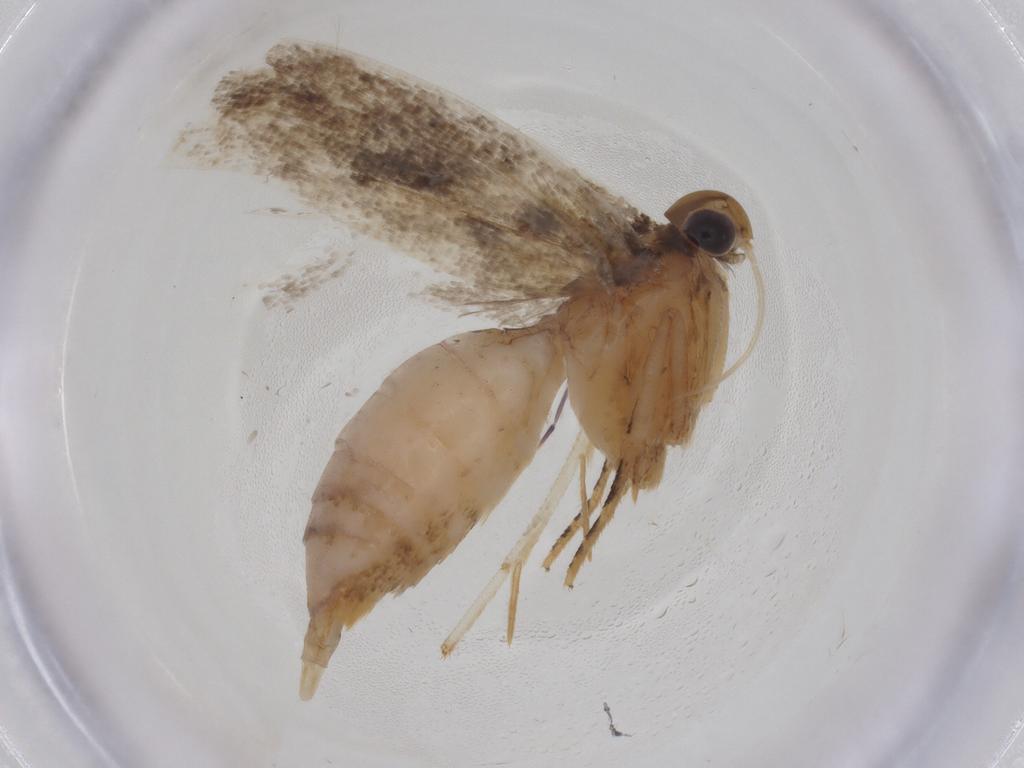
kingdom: Animalia
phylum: Arthropoda
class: Insecta
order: Lepidoptera
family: Gelechiidae
